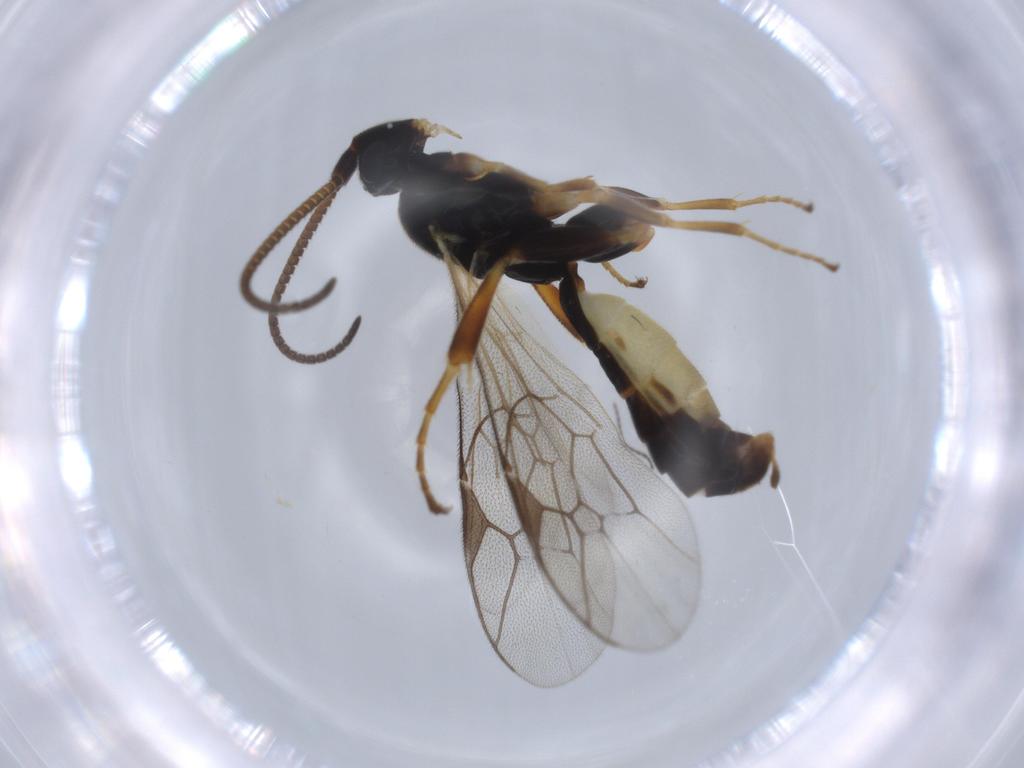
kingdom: Animalia
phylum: Arthropoda
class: Insecta
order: Hymenoptera
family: Ichneumonidae
